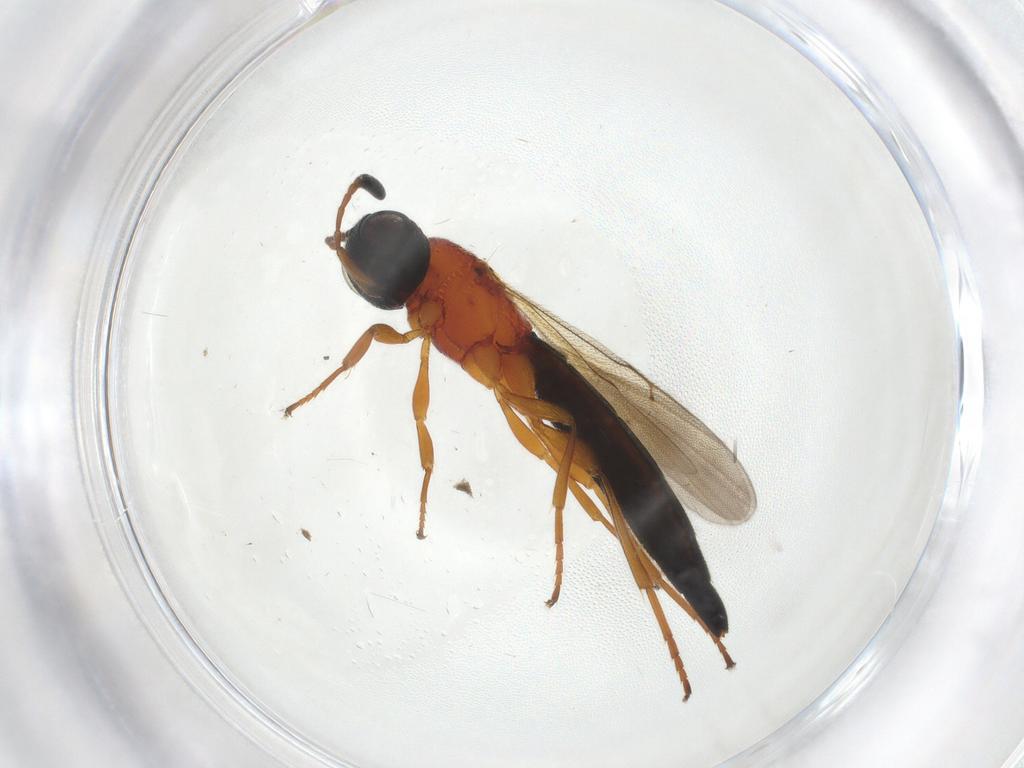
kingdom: Animalia
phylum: Arthropoda
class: Insecta
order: Hymenoptera
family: Scelionidae
